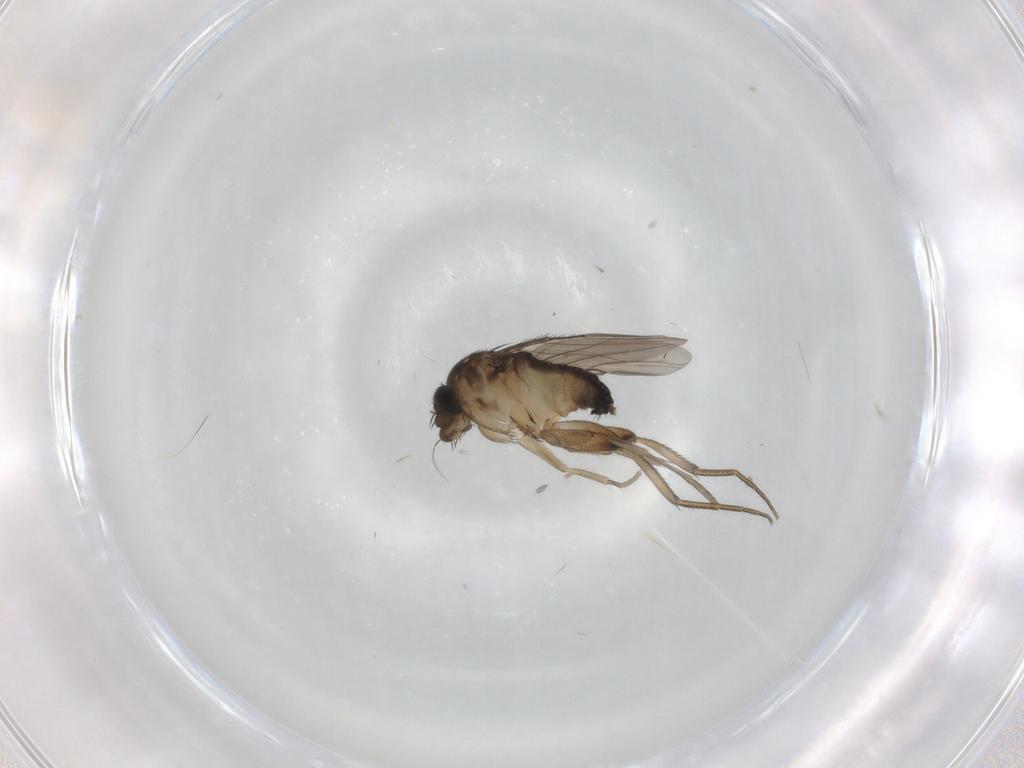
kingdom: Animalia
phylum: Arthropoda
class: Insecta
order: Diptera
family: Phoridae
